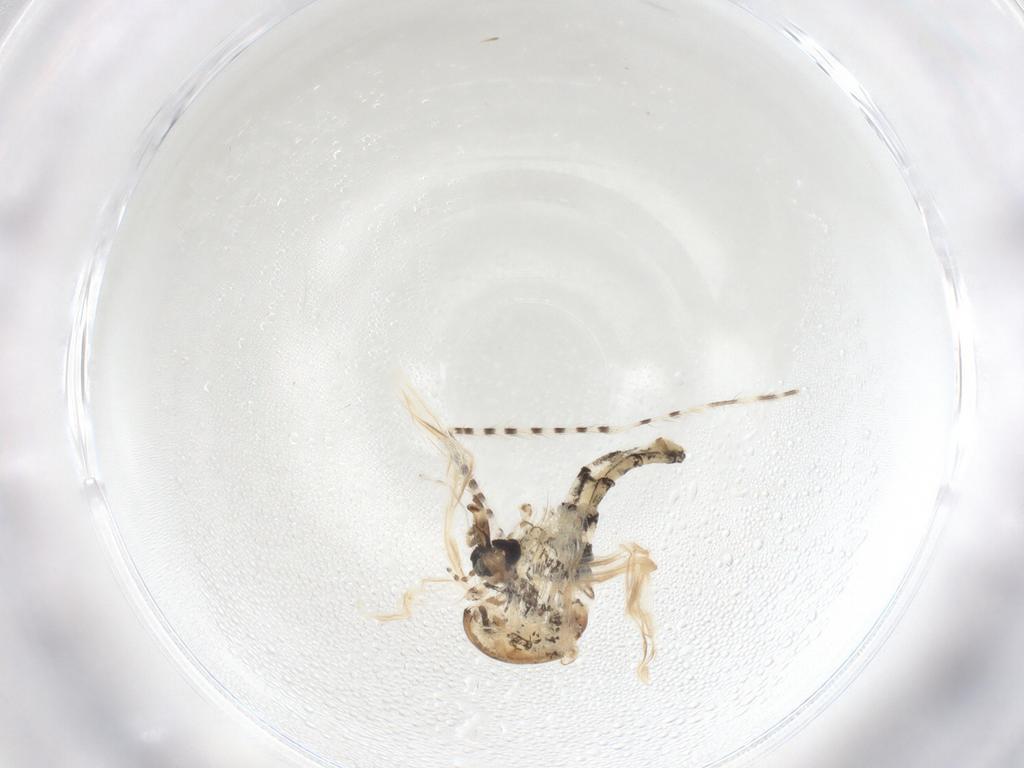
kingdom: Animalia
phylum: Arthropoda
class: Insecta
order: Diptera
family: Chaoboridae
